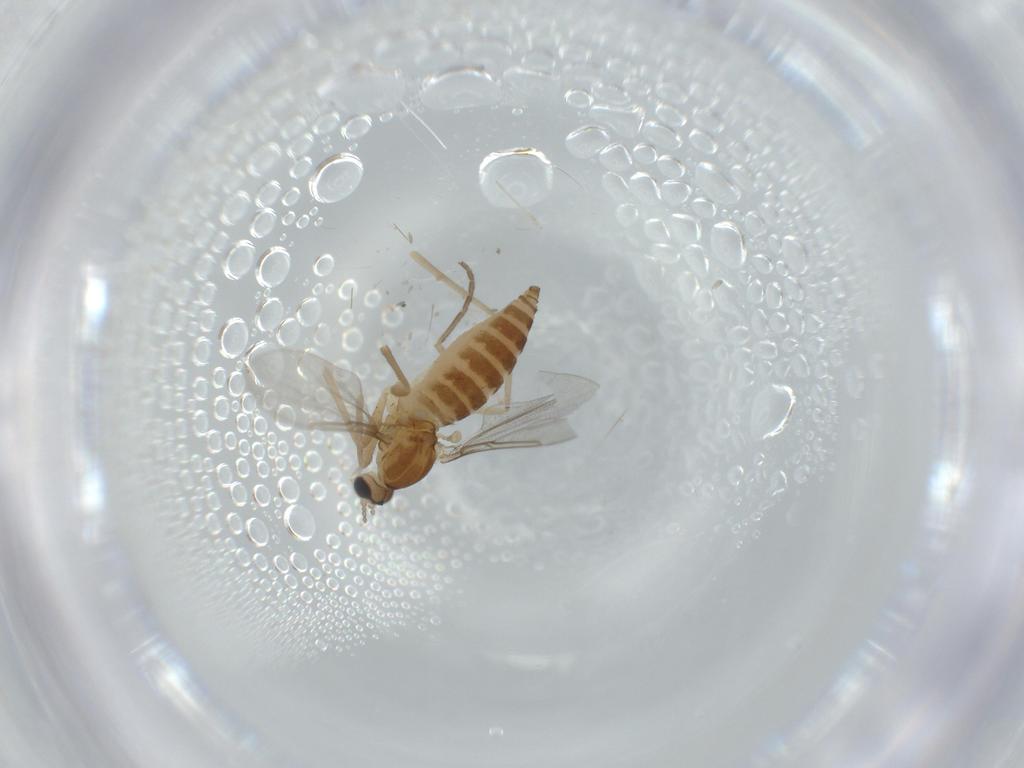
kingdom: Animalia
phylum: Arthropoda
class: Insecta
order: Diptera
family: Cecidomyiidae
